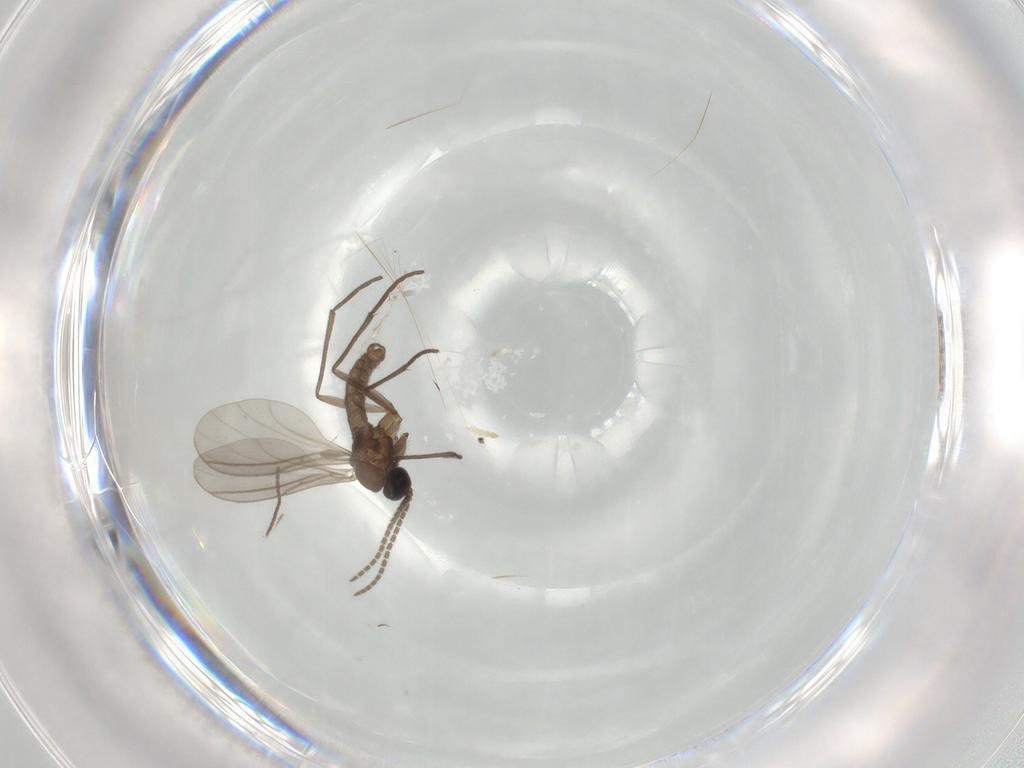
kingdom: Animalia
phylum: Arthropoda
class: Insecta
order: Diptera
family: Sciaridae
